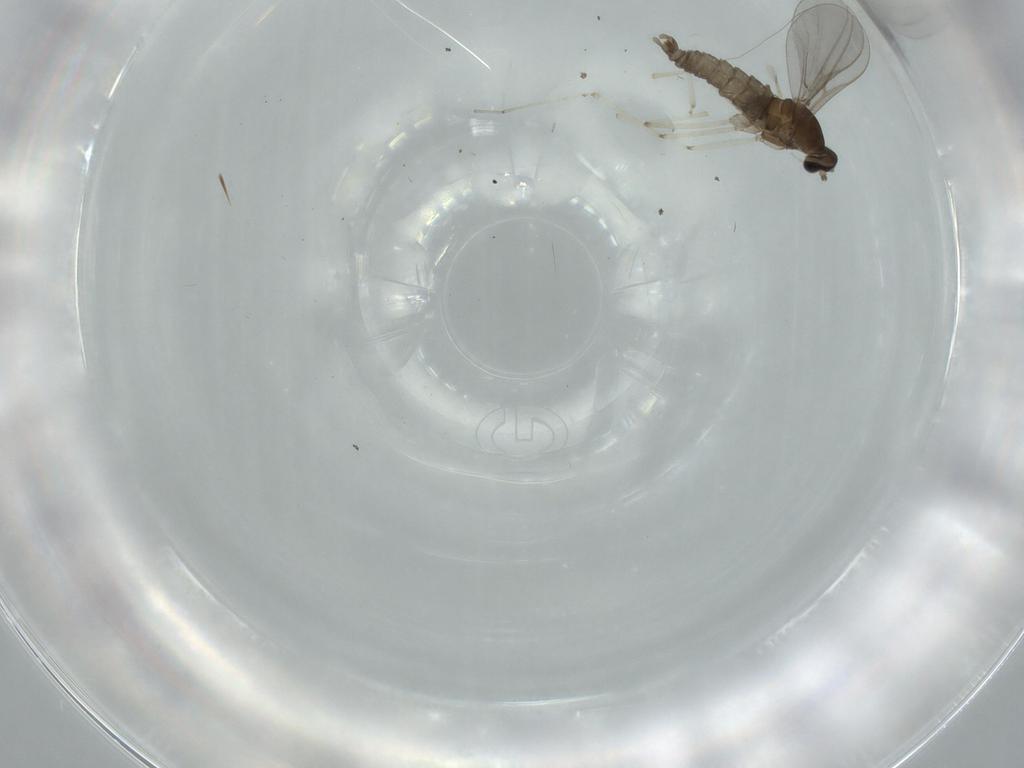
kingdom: Animalia
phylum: Arthropoda
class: Insecta
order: Diptera
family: Cecidomyiidae
